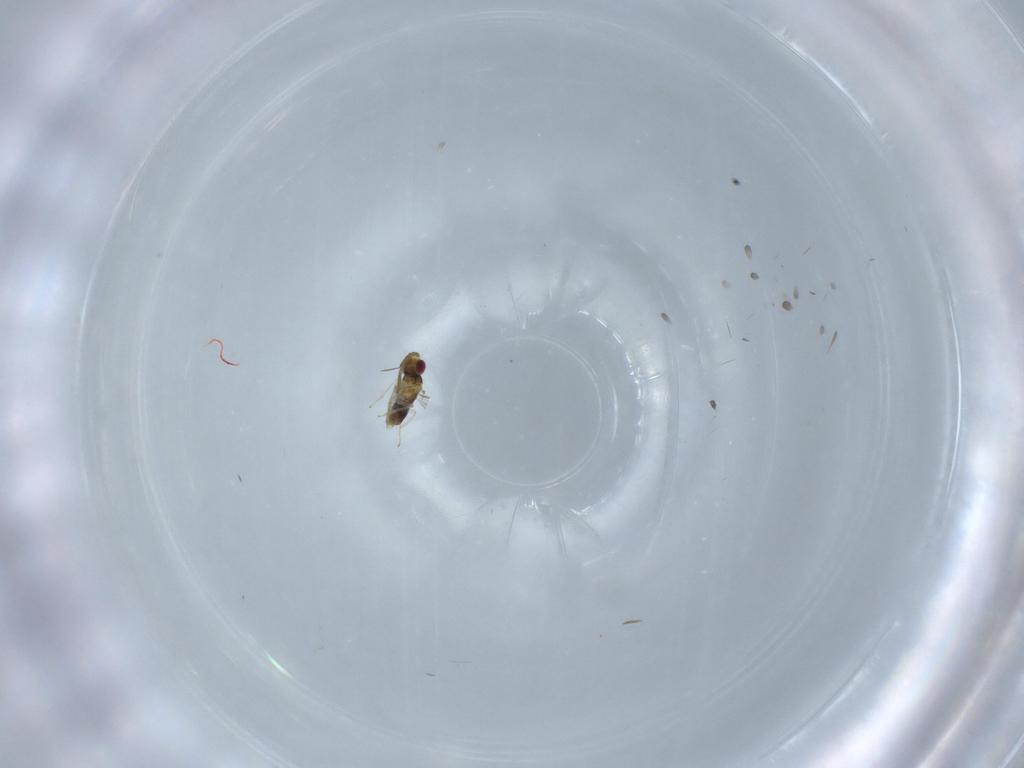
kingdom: Animalia
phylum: Arthropoda
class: Insecta
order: Hymenoptera
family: Aphelinidae
